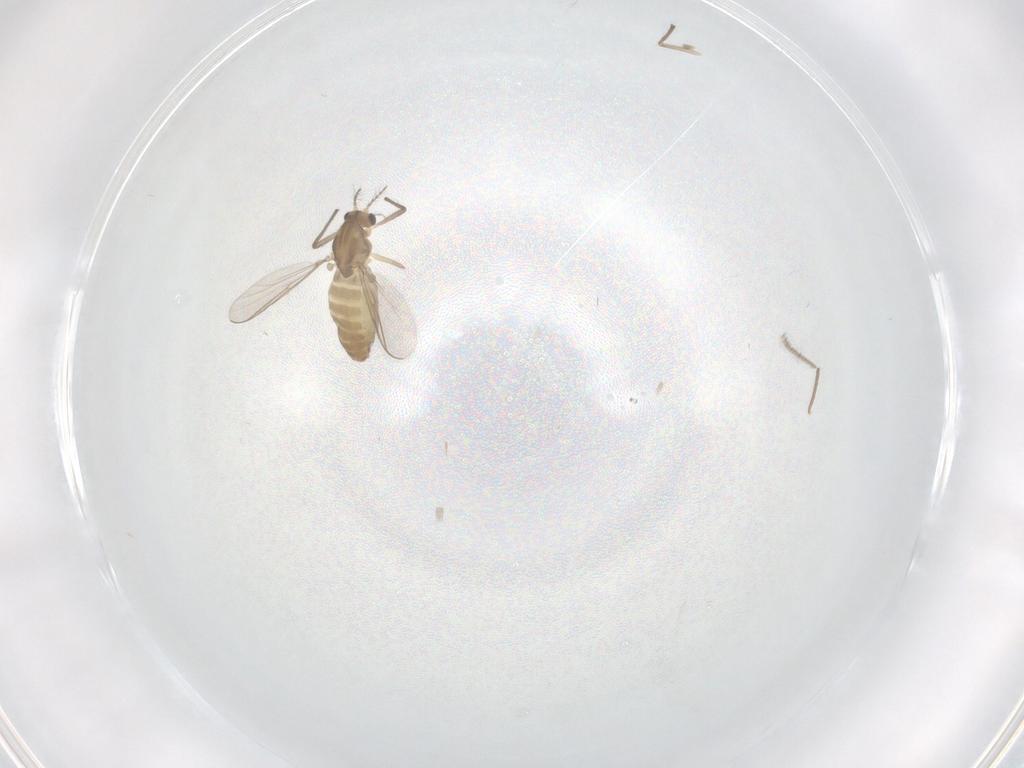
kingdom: Animalia
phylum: Arthropoda
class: Insecta
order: Diptera
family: Chironomidae
